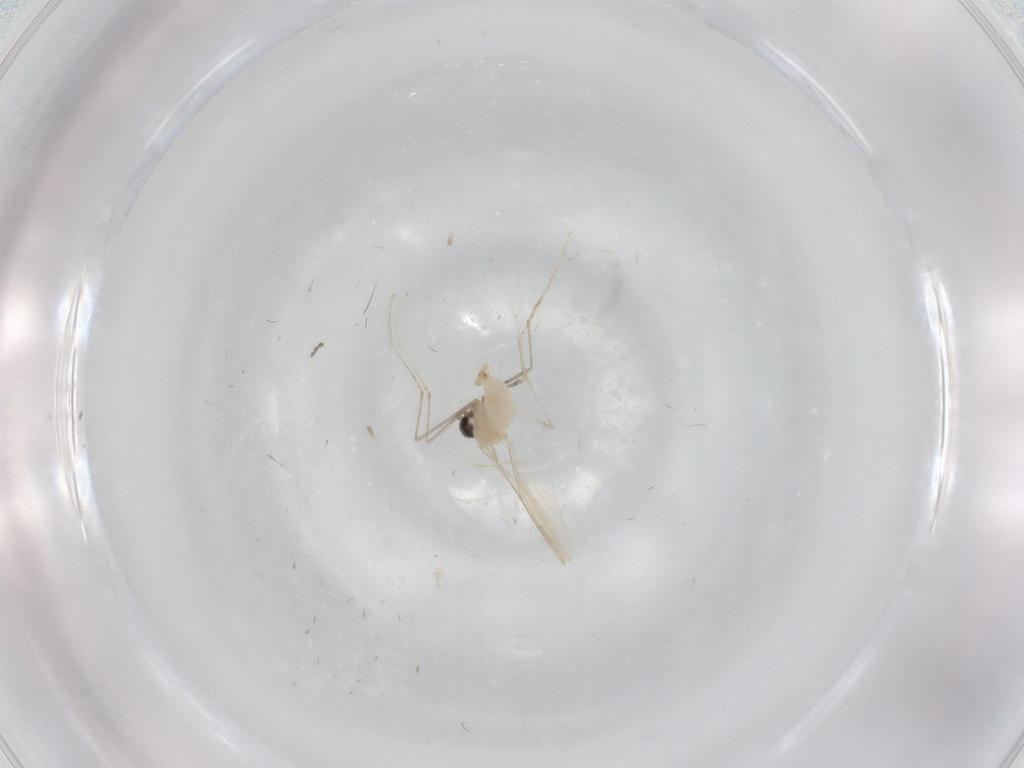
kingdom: Animalia
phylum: Arthropoda
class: Insecta
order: Diptera
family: Cecidomyiidae
